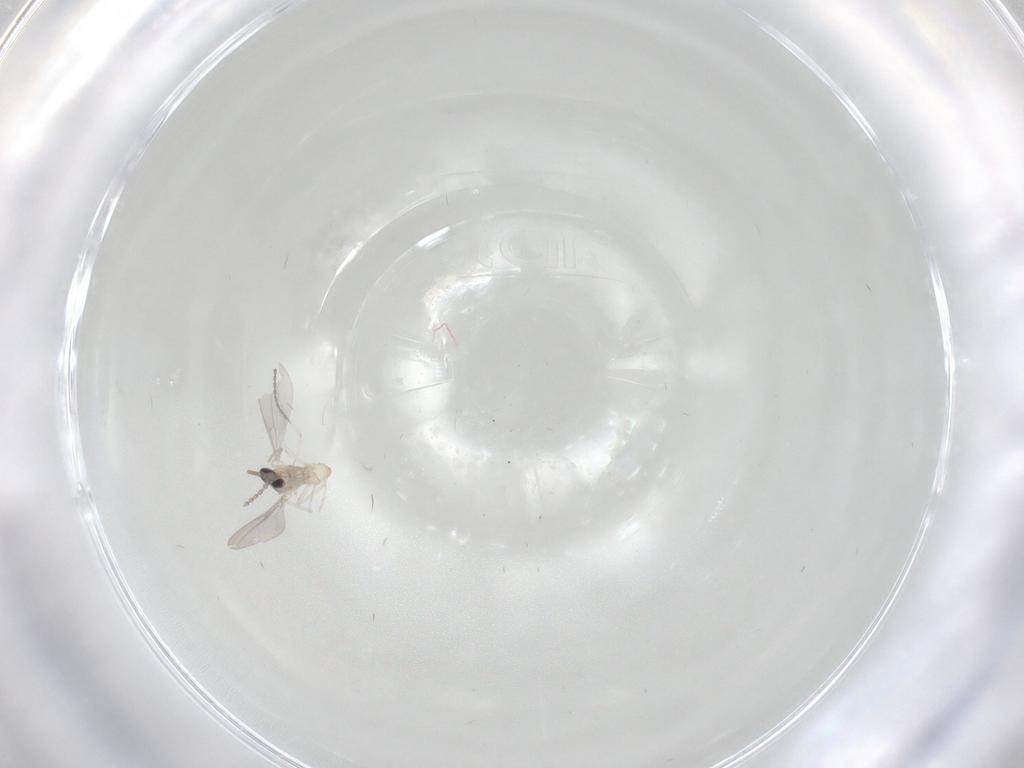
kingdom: Animalia
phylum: Arthropoda
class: Insecta
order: Diptera
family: Cecidomyiidae
